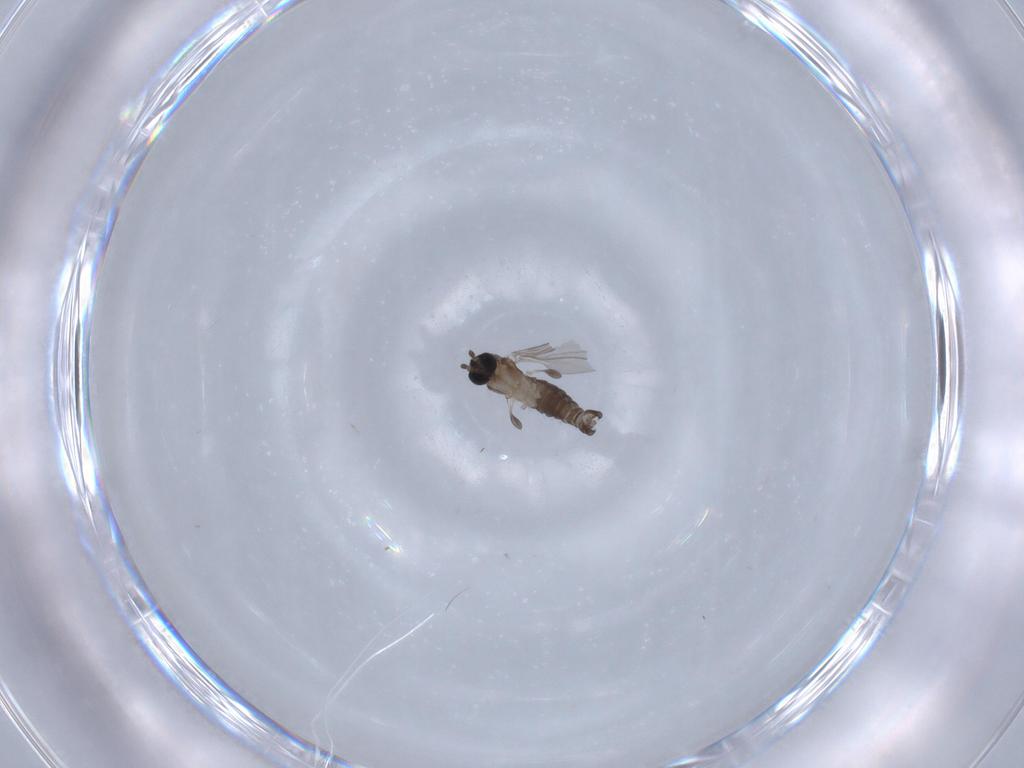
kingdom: Animalia
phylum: Arthropoda
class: Insecta
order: Diptera
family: Sciaridae
